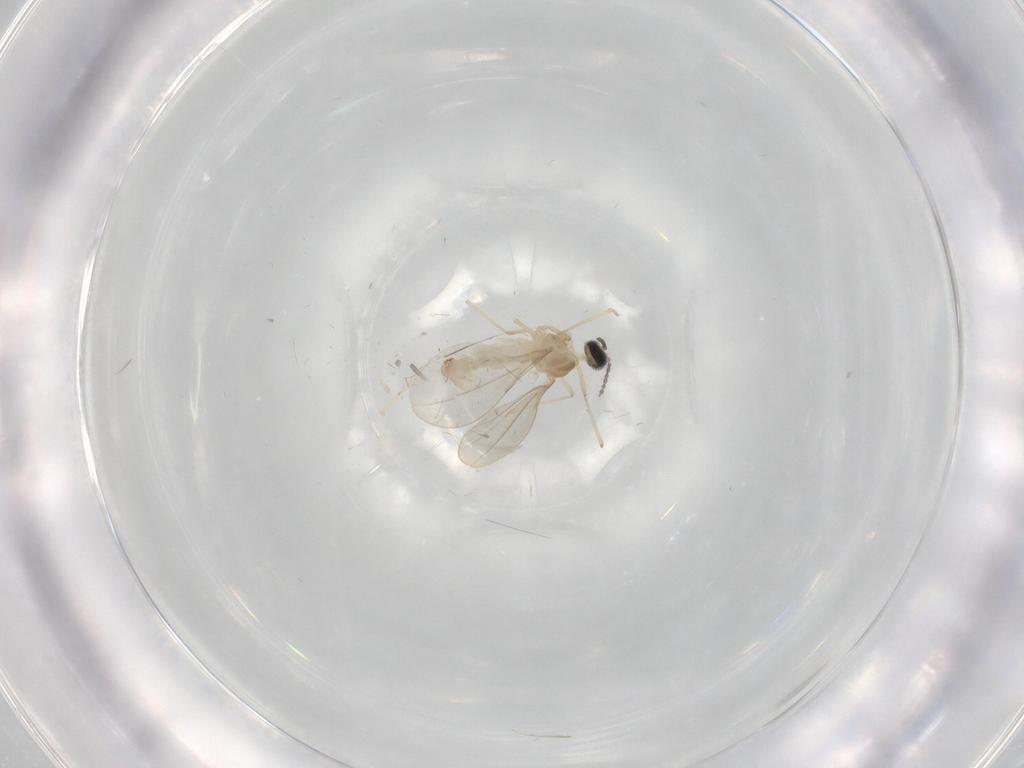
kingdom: Animalia
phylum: Arthropoda
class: Insecta
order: Diptera
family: Cecidomyiidae
